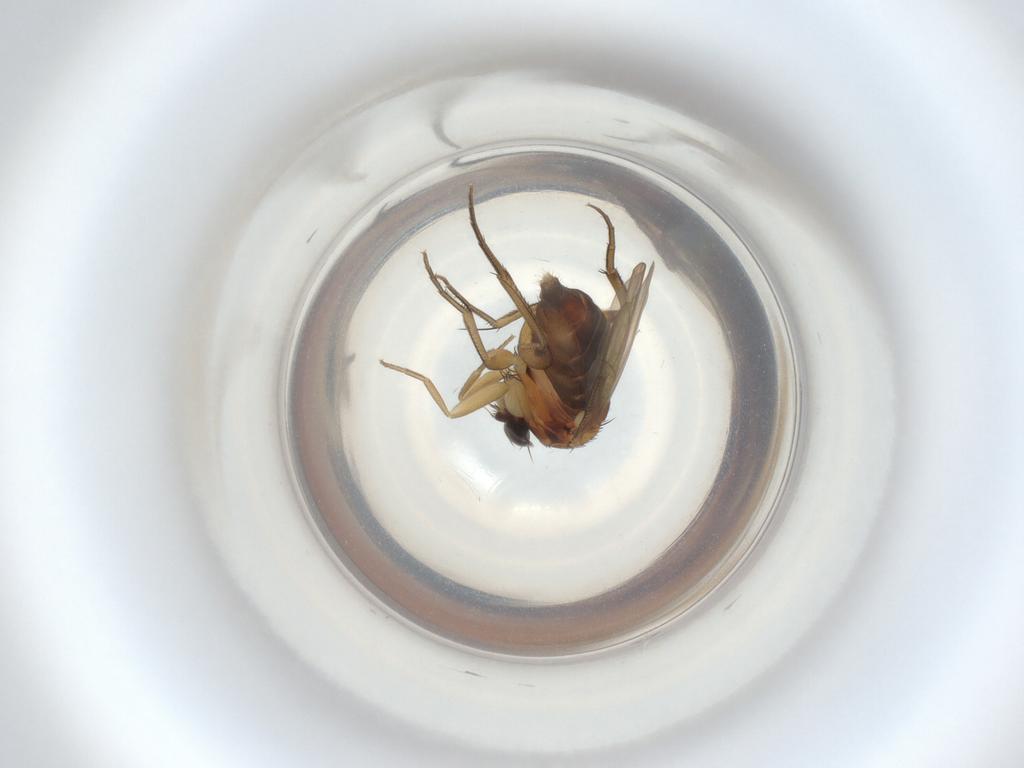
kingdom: Animalia
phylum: Arthropoda
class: Insecta
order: Diptera
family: Phoridae
